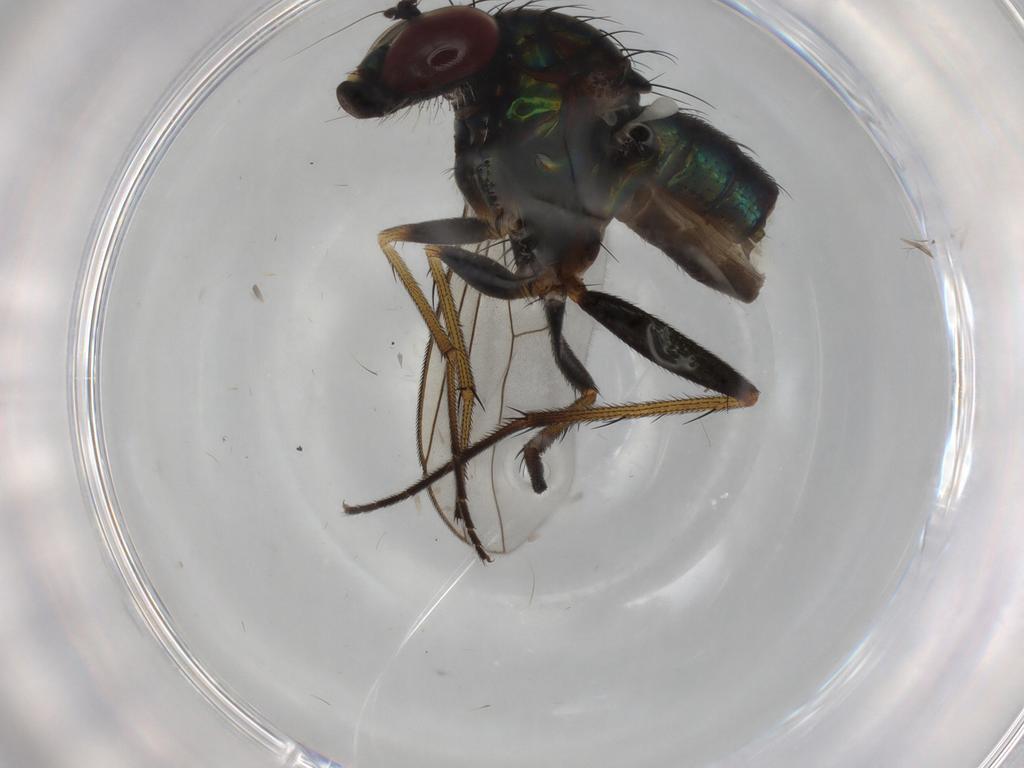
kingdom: Animalia
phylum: Arthropoda
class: Insecta
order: Diptera
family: Dolichopodidae
